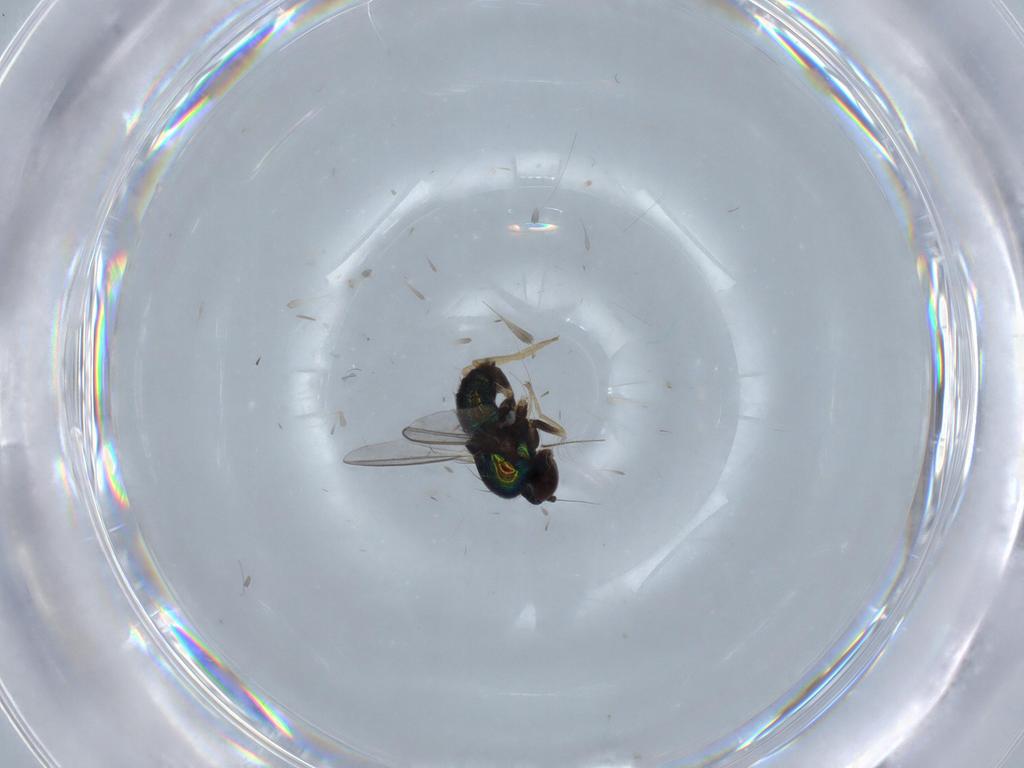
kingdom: Animalia
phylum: Arthropoda
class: Insecta
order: Diptera
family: Dolichopodidae
